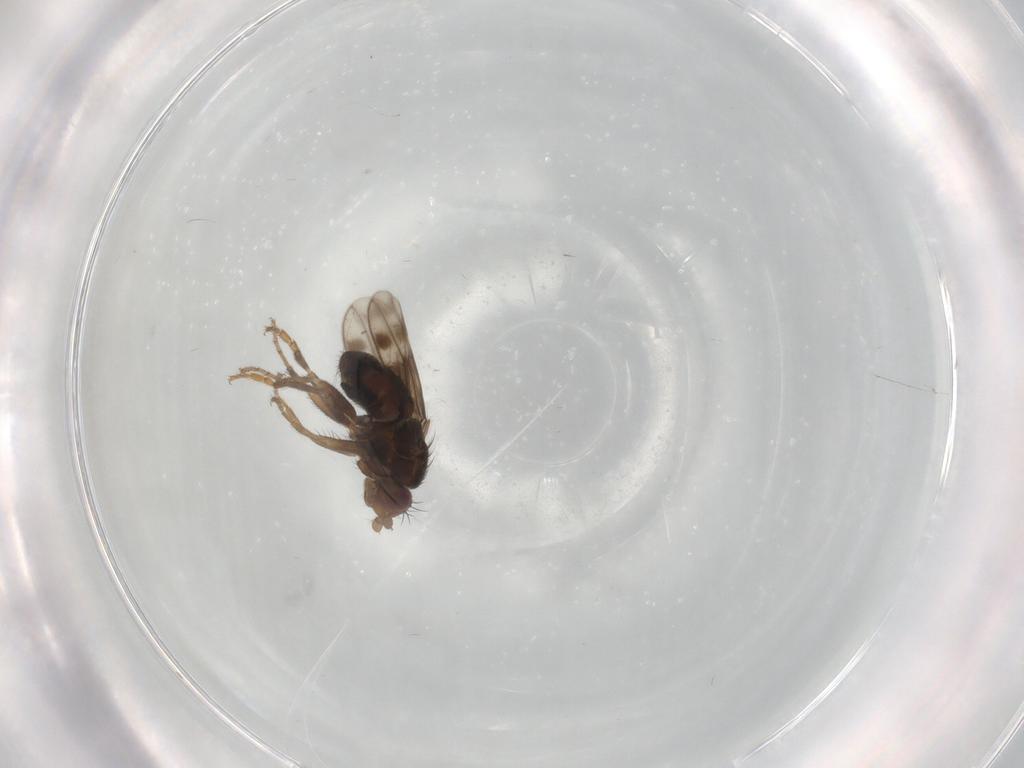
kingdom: Animalia
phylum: Arthropoda
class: Insecta
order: Diptera
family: Sphaeroceridae
